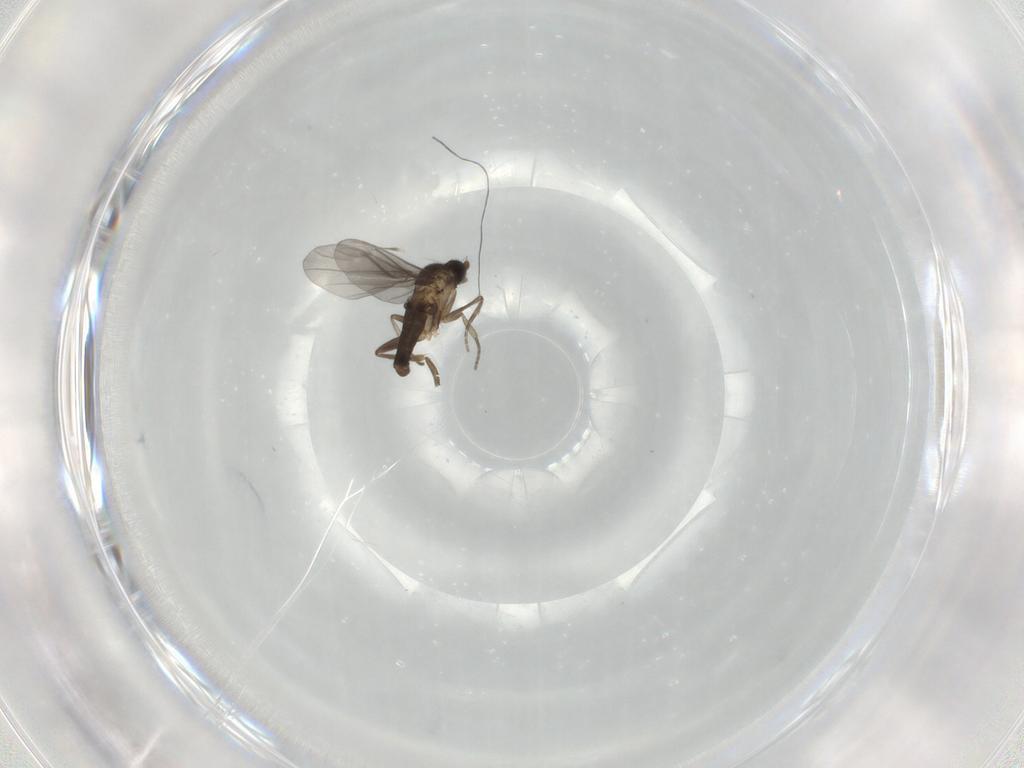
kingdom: Animalia
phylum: Arthropoda
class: Insecta
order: Diptera
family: Phoridae
